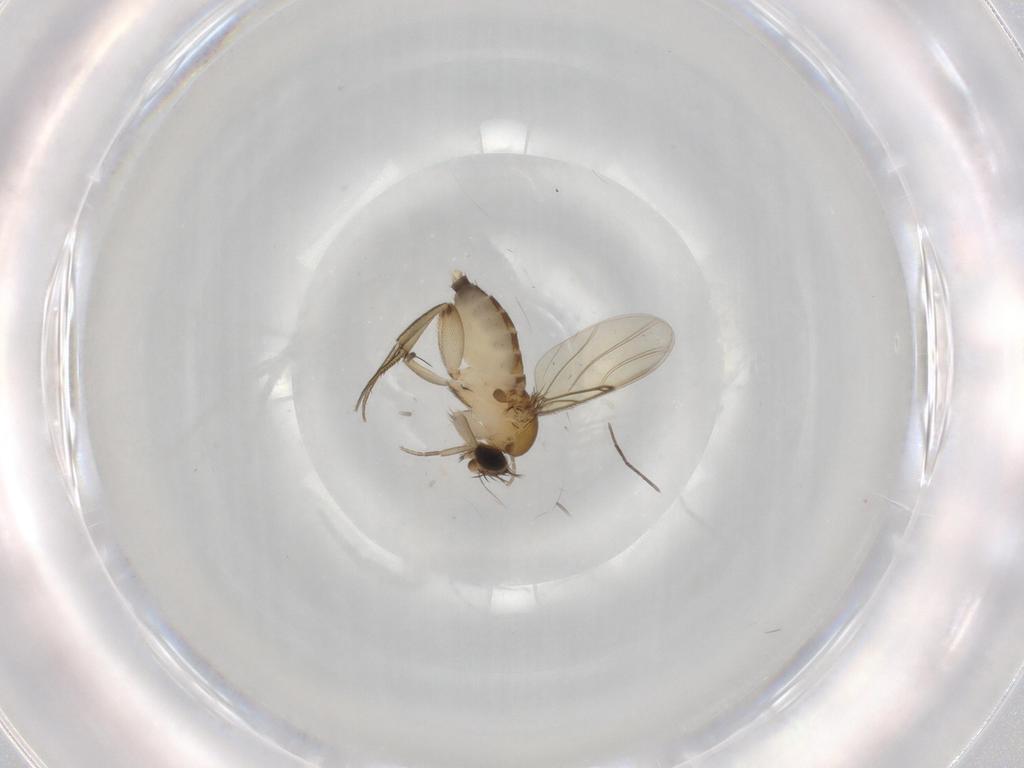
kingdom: Animalia
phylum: Arthropoda
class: Insecta
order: Diptera
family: Phoridae
